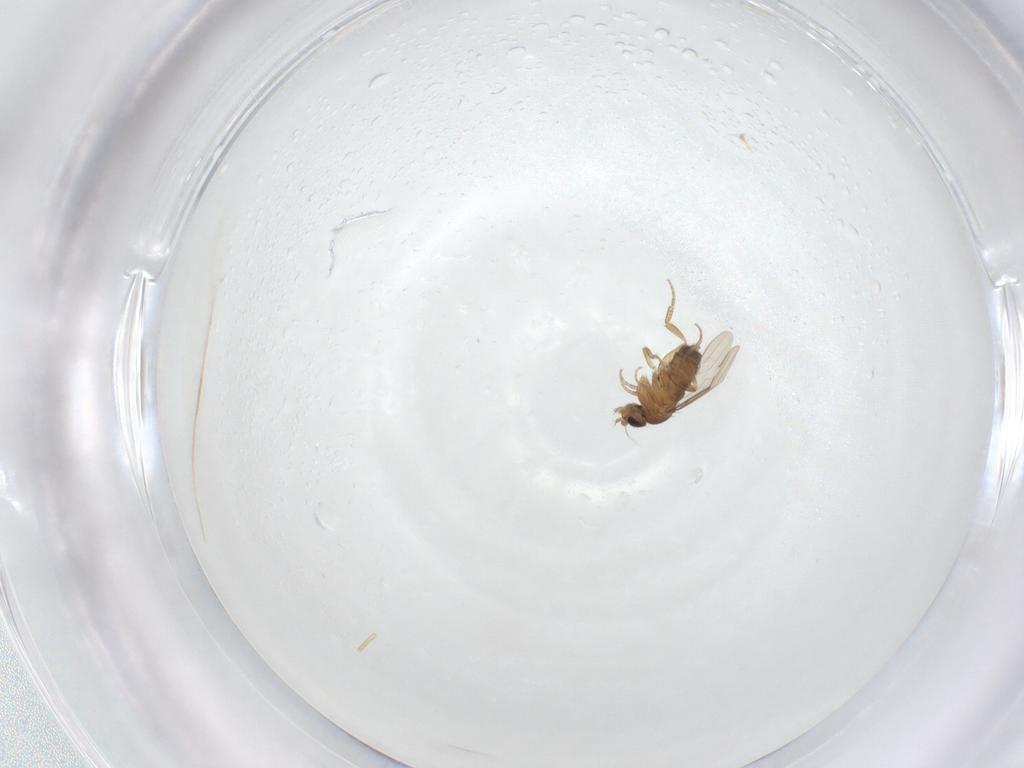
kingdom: Animalia
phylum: Arthropoda
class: Insecta
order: Diptera
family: Phoridae
